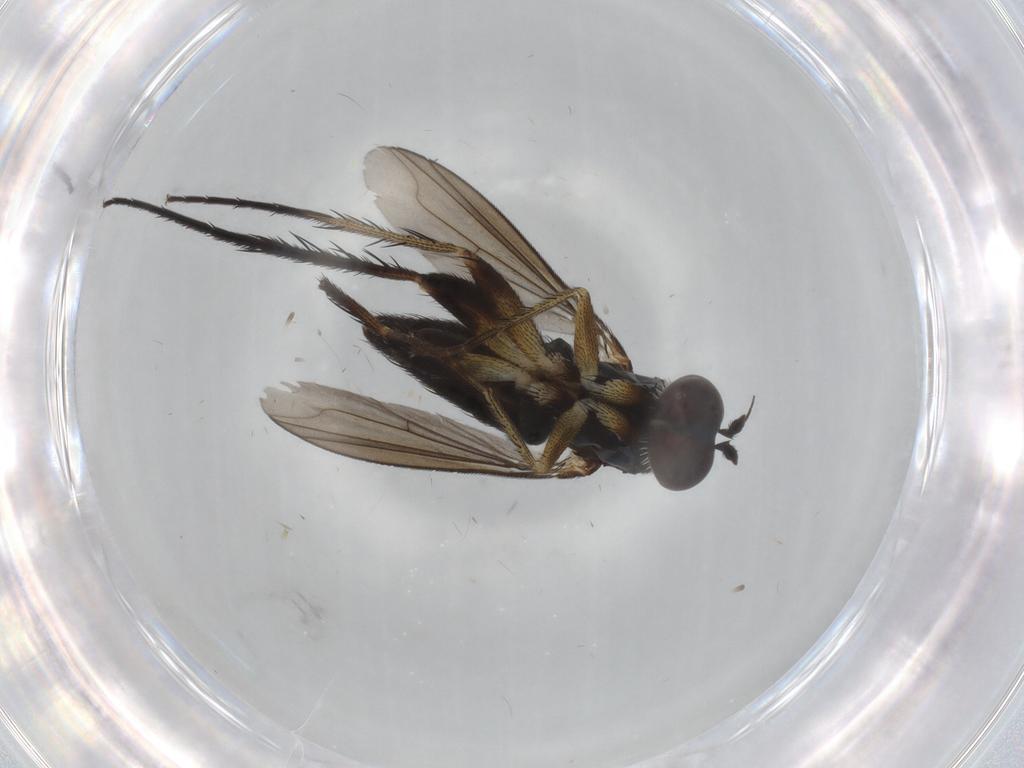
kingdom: Animalia
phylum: Arthropoda
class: Insecta
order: Diptera
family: Dolichopodidae
